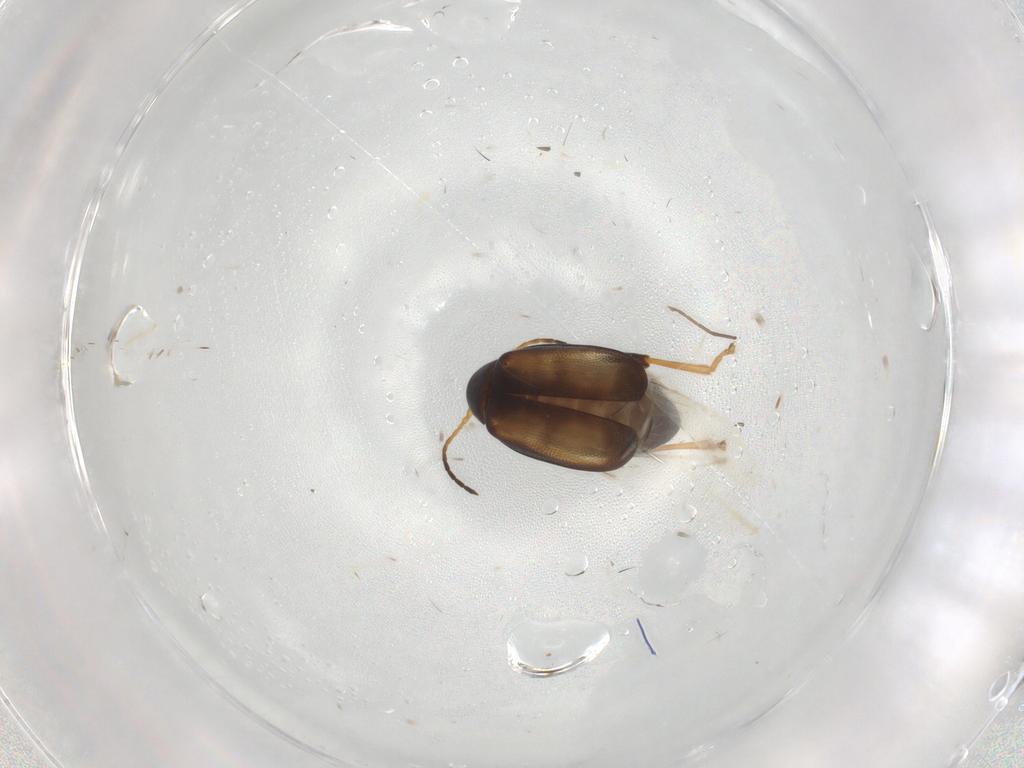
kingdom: Animalia
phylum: Arthropoda
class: Insecta
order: Coleoptera
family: Chrysomelidae
